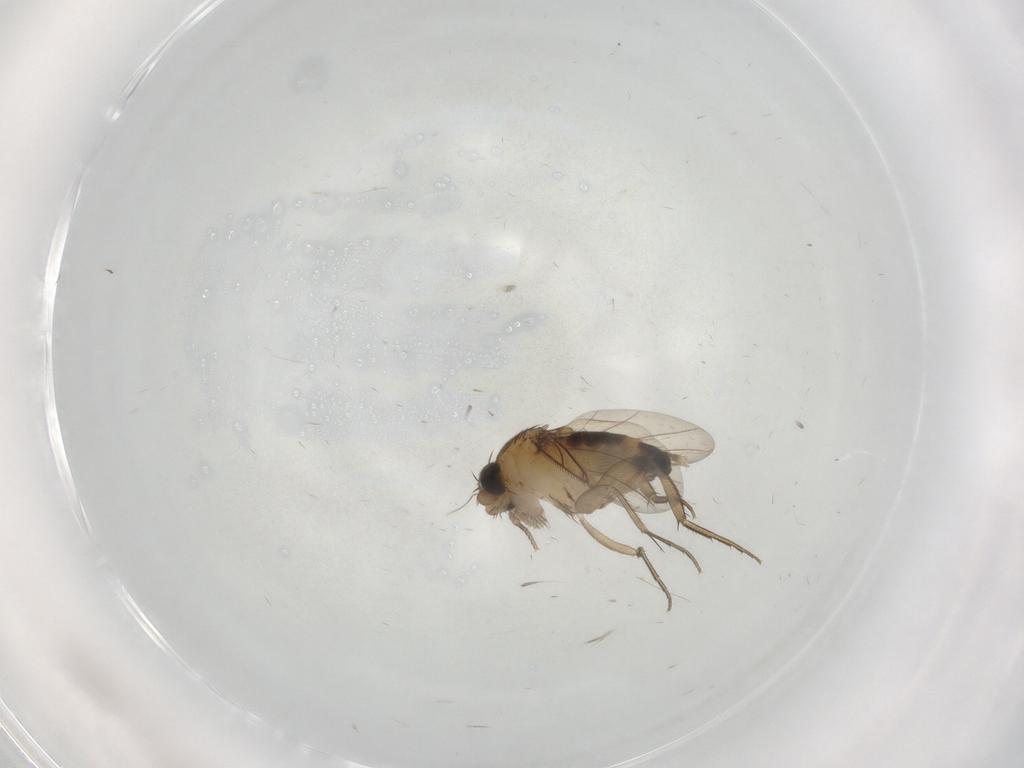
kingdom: Animalia
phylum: Arthropoda
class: Insecta
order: Diptera
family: Phoridae
